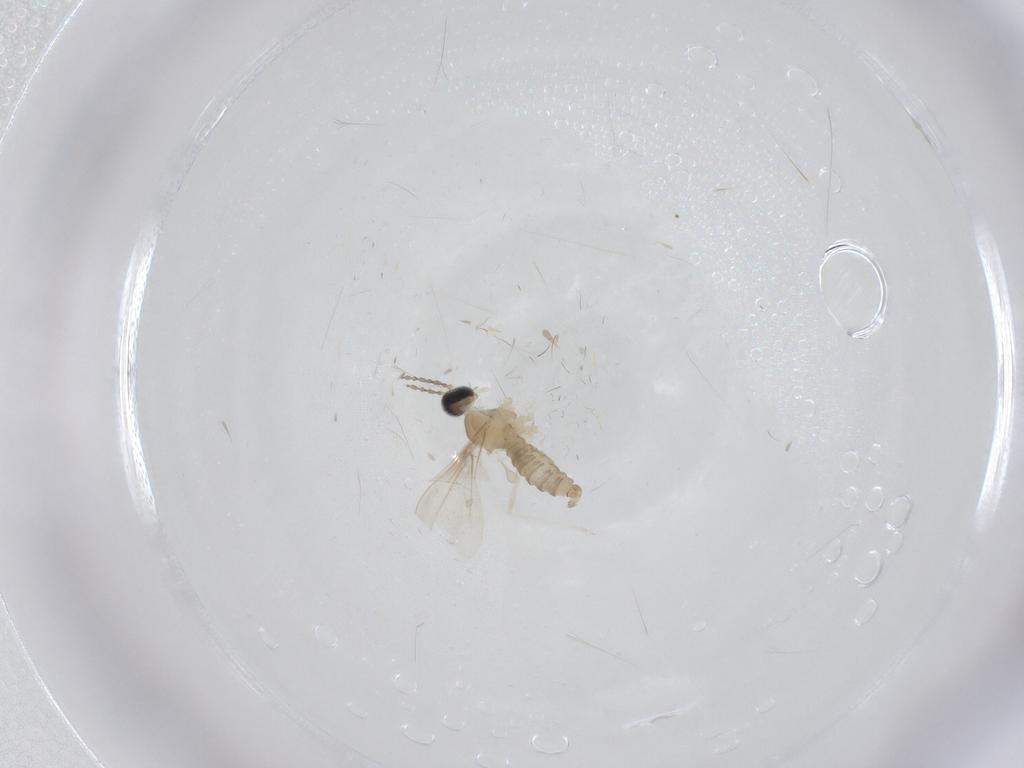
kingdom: Animalia
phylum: Arthropoda
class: Insecta
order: Diptera
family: Cecidomyiidae
